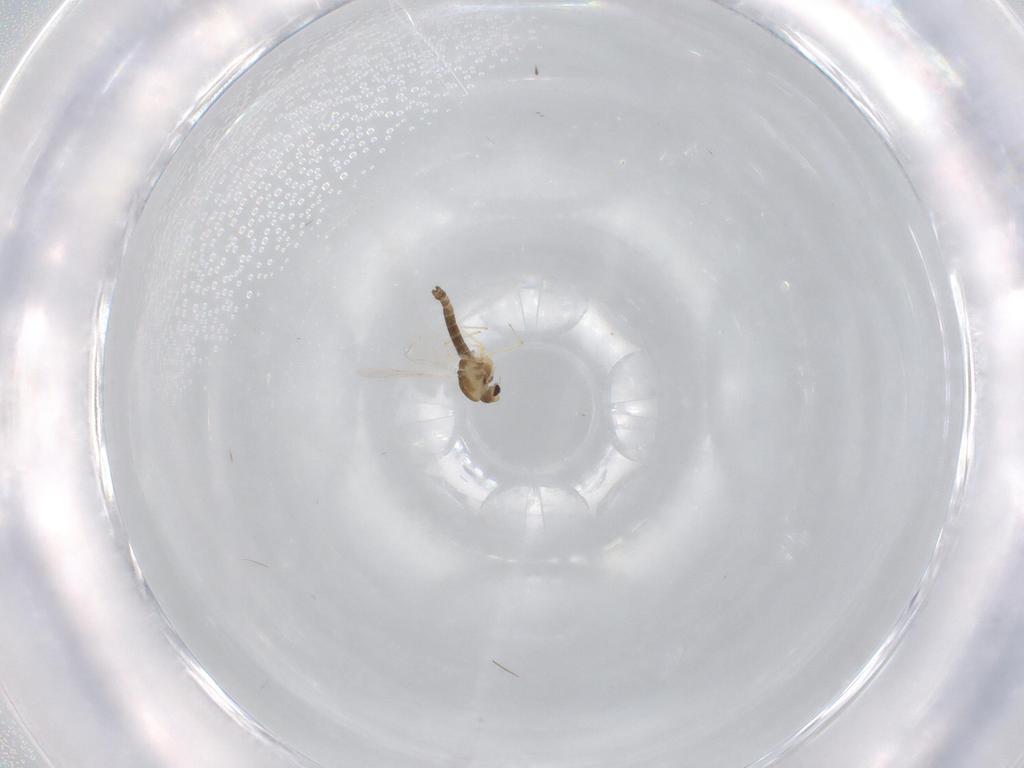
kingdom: Animalia
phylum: Arthropoda
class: Insecta
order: Diptera
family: Chironomidae
